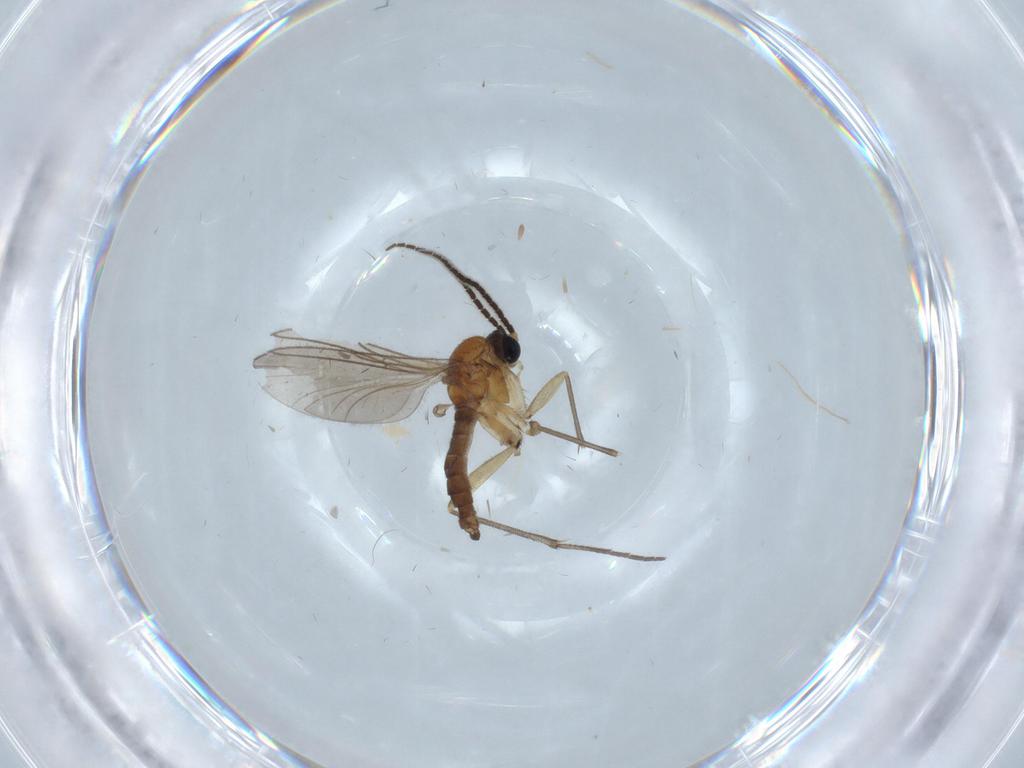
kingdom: Animalia
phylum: Arthropoda
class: Insecta
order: Diptera
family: Sciaridae
